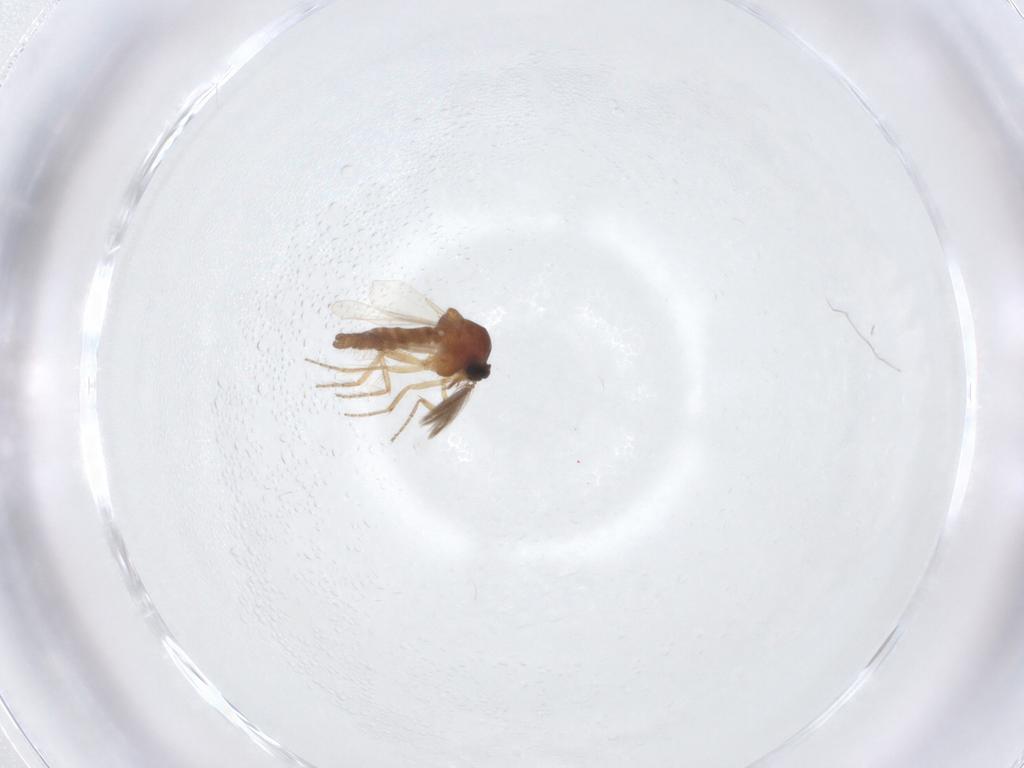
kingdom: Animalia
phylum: Arthropoda
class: Insecta
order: Diptera
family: Ceratopogonidae
